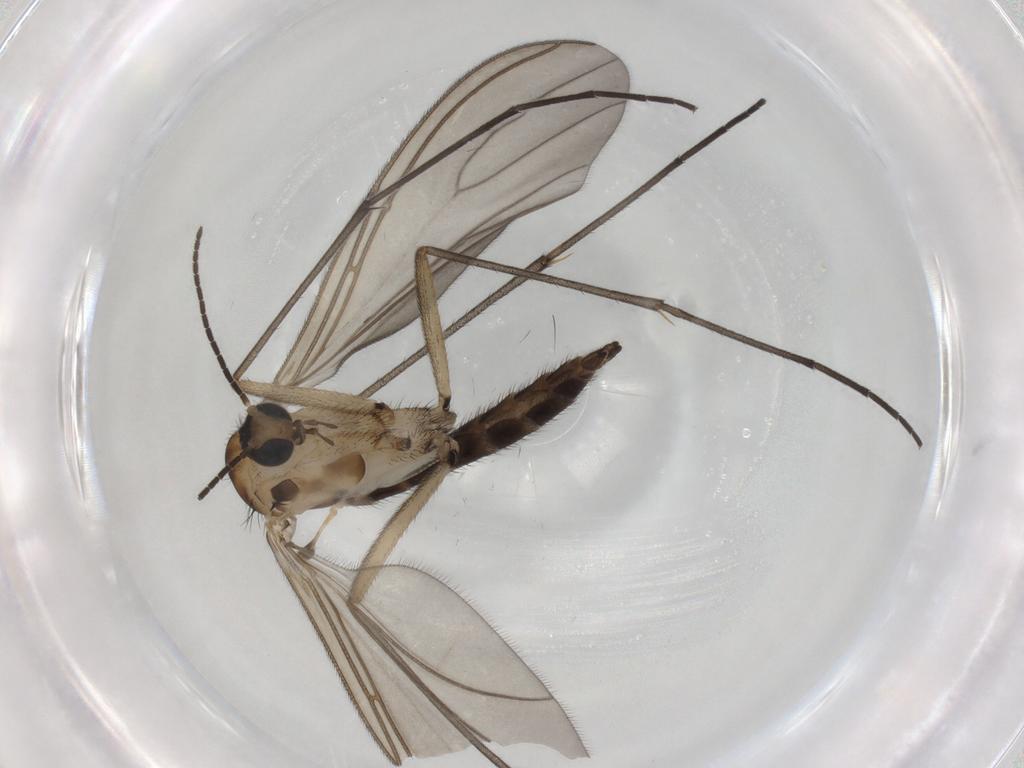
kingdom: Animalia
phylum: Arthropoda
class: Insecta
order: Diptera
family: Sciaridae
